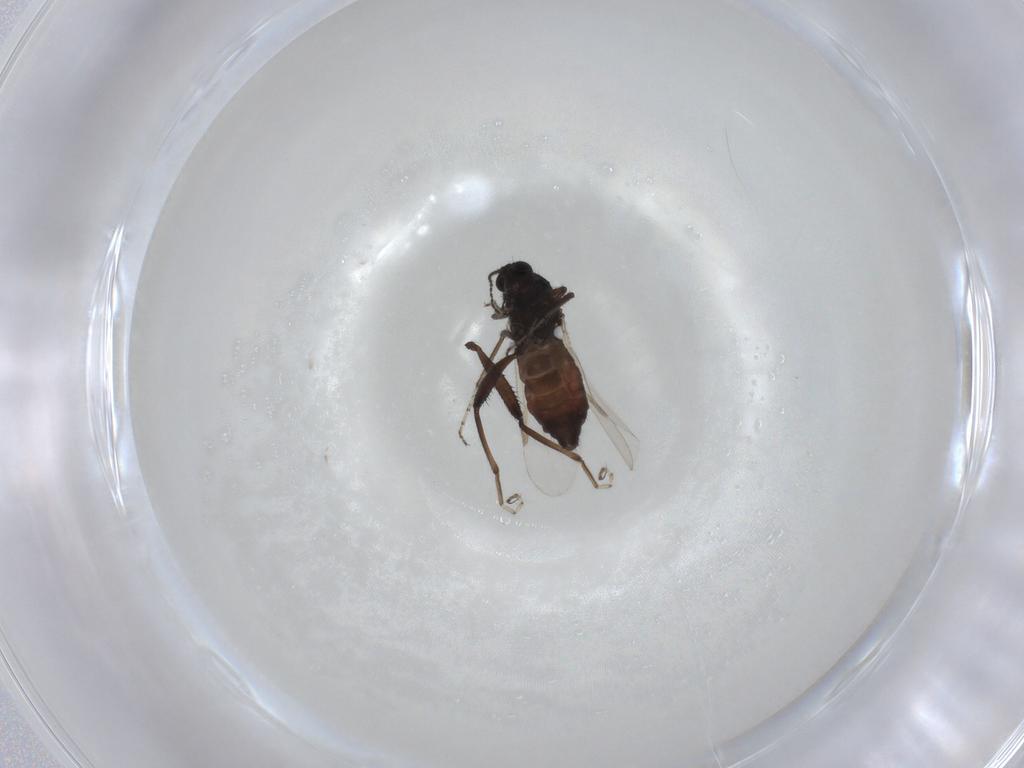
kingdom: Animalia
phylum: Arthropoda
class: Insecta
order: Diptera
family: Ceratopogonidae
